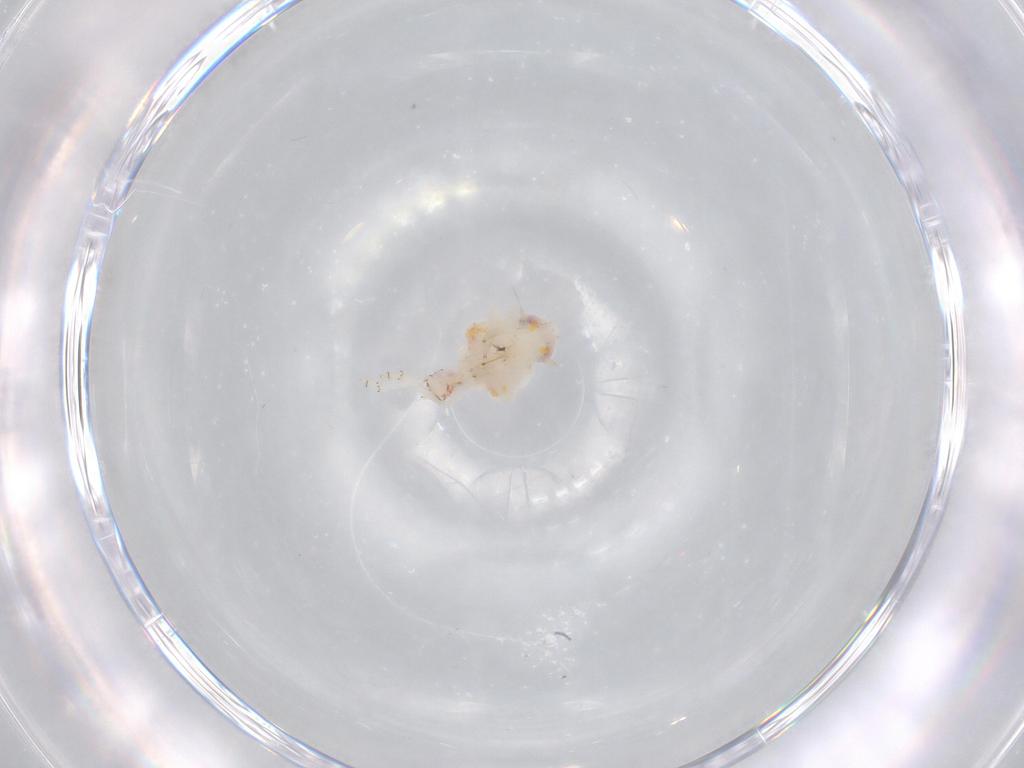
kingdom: Animalia
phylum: Arthropoda
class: Insecta
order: Hemiptera
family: Nogodinidae
